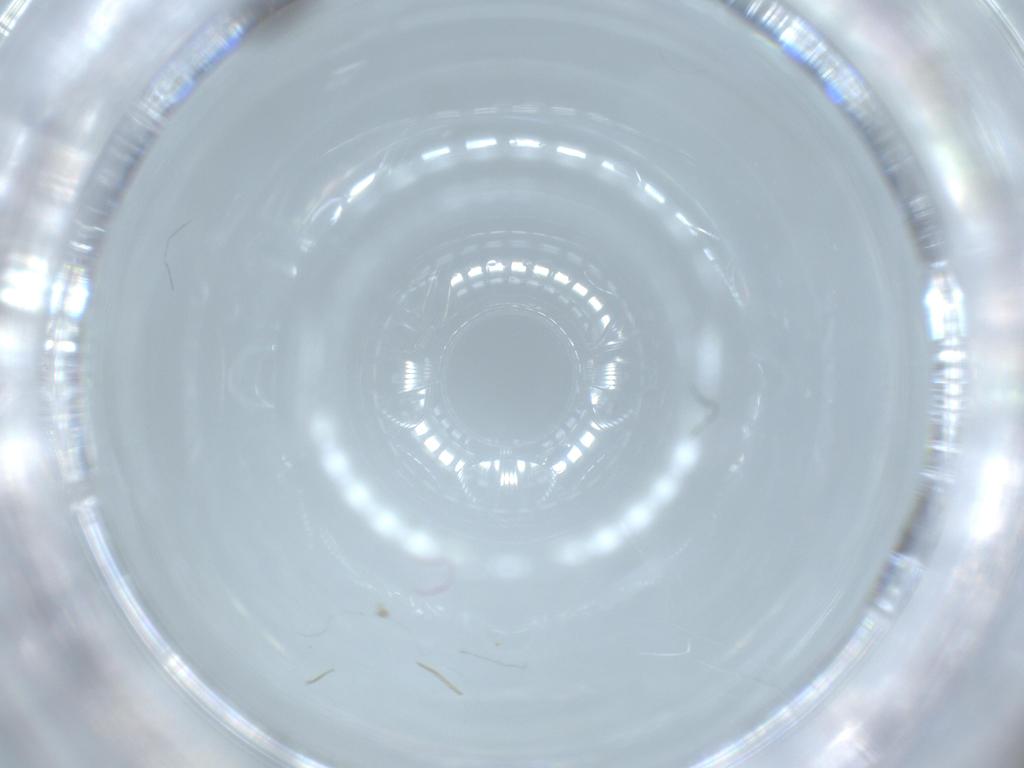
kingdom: Animalia
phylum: Arthropoda
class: Insecta
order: Hymenoptera
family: Scelionidae
